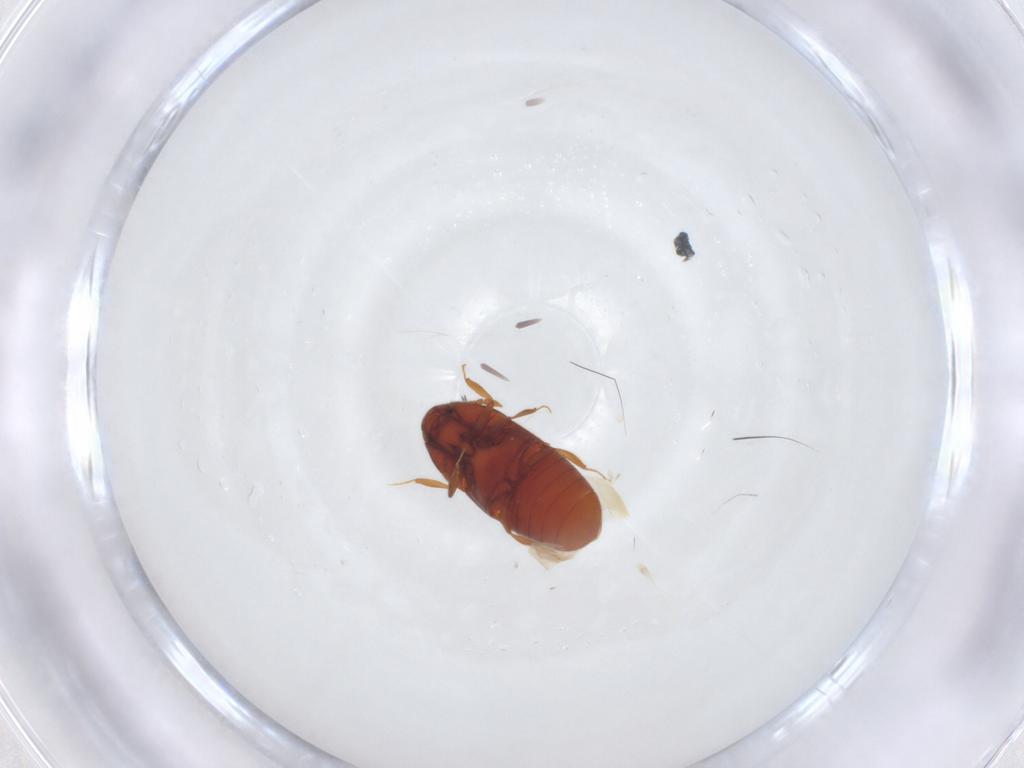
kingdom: Animalia
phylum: Arthropoda
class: Insecta
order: Coleoptera
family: Throscidae
